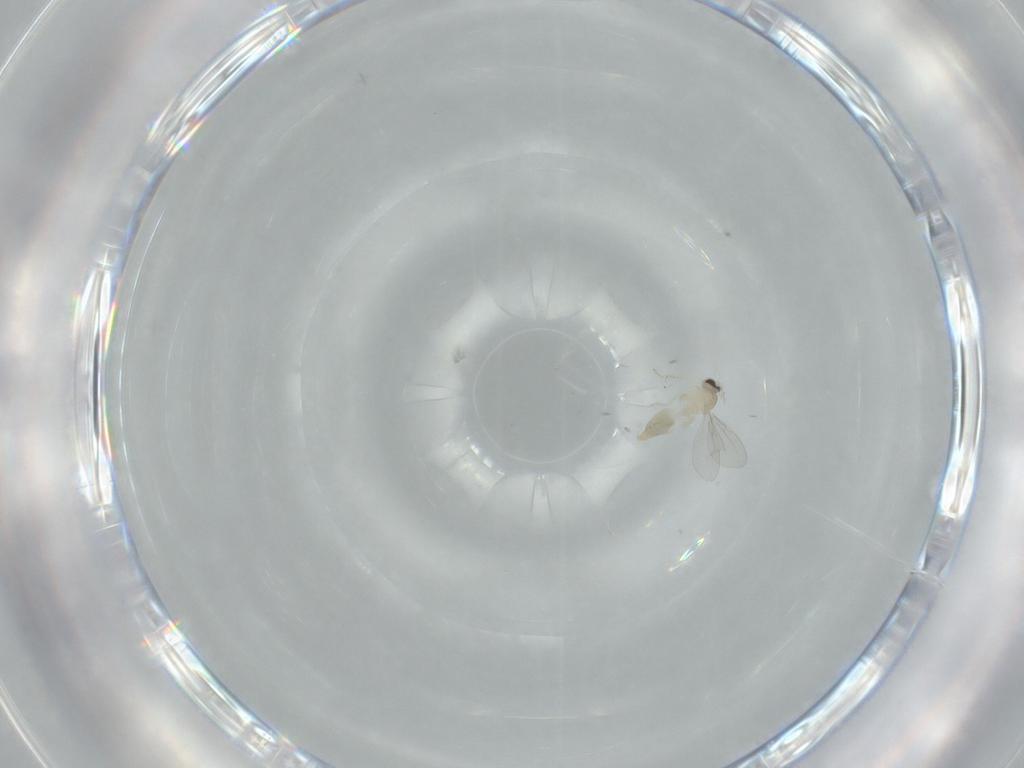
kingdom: Animalia
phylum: Arthropoda
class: Insecta
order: Diptera
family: Cecidomyiidae
